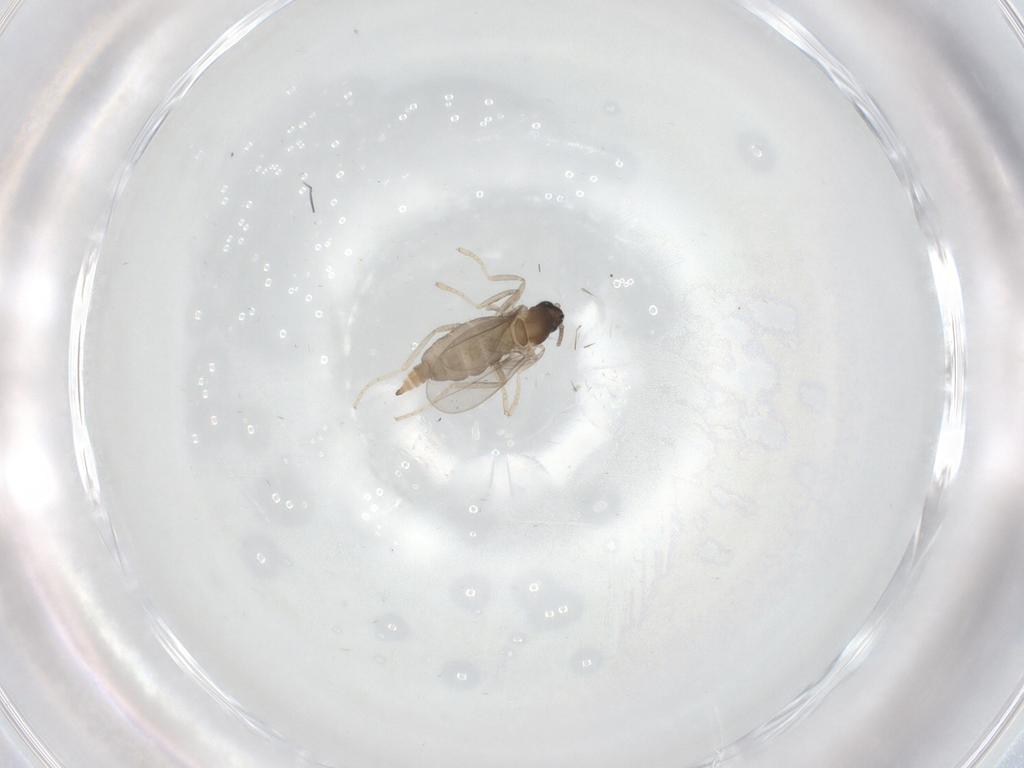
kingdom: Animalia
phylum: Arthropoda
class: Insecta
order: Diptera
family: Cecidomyiidae
